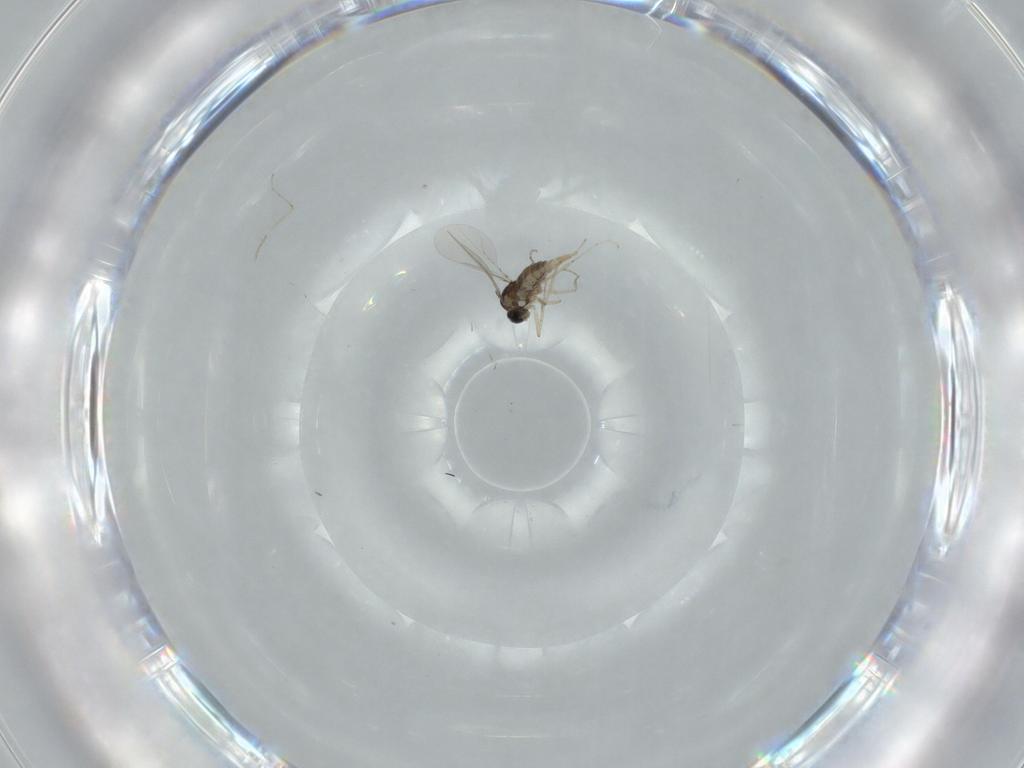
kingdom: Animalia
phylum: Arthropoda
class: Insecta
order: Diptera
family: Cecidomyiidae
